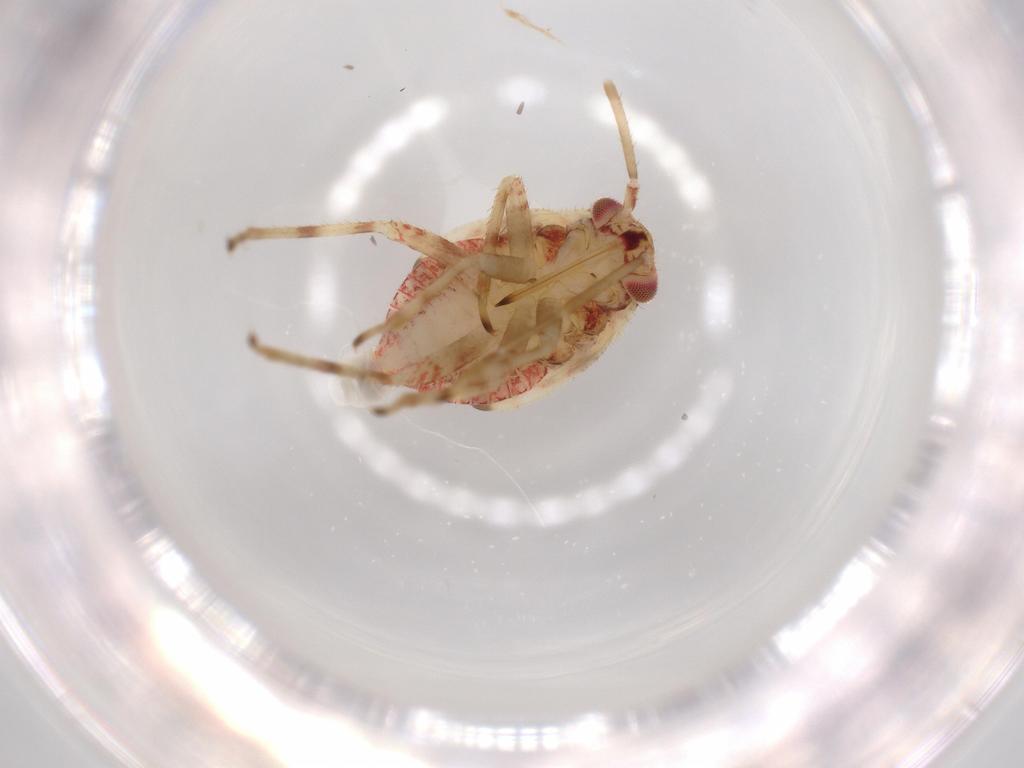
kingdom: Animalia
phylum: Arthropoda
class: Insecta
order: Hemiptera
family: Miridae
